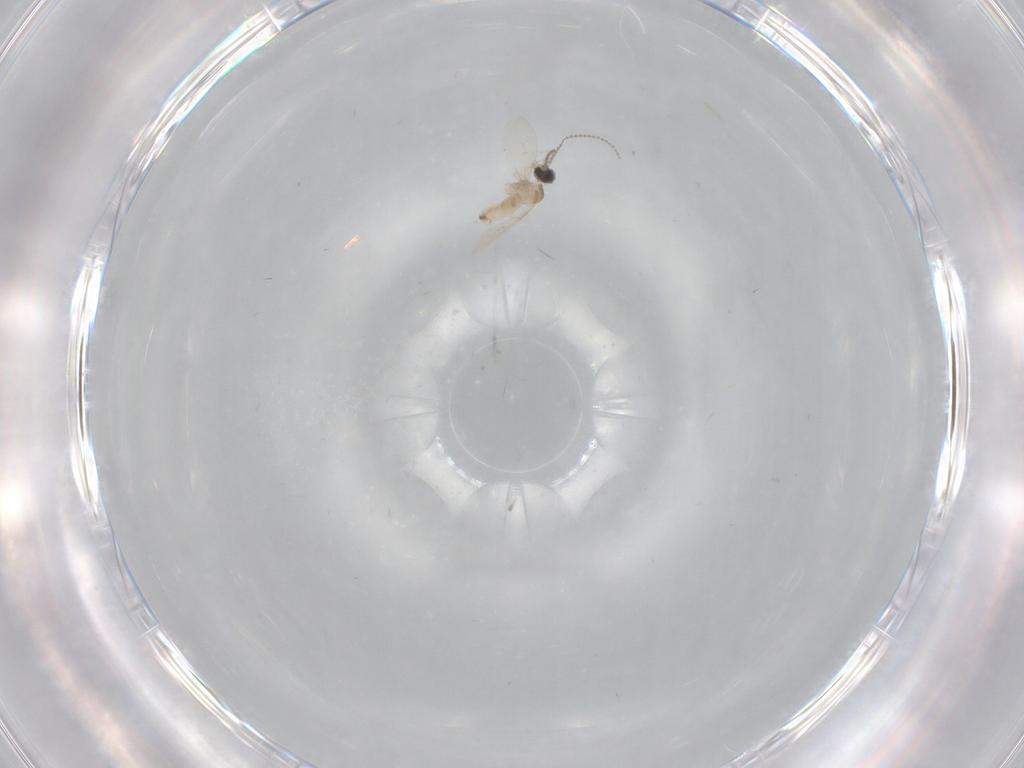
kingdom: Animalia
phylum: Arthropoda
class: Insecta
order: Diptera
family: Cecidomyiidae
